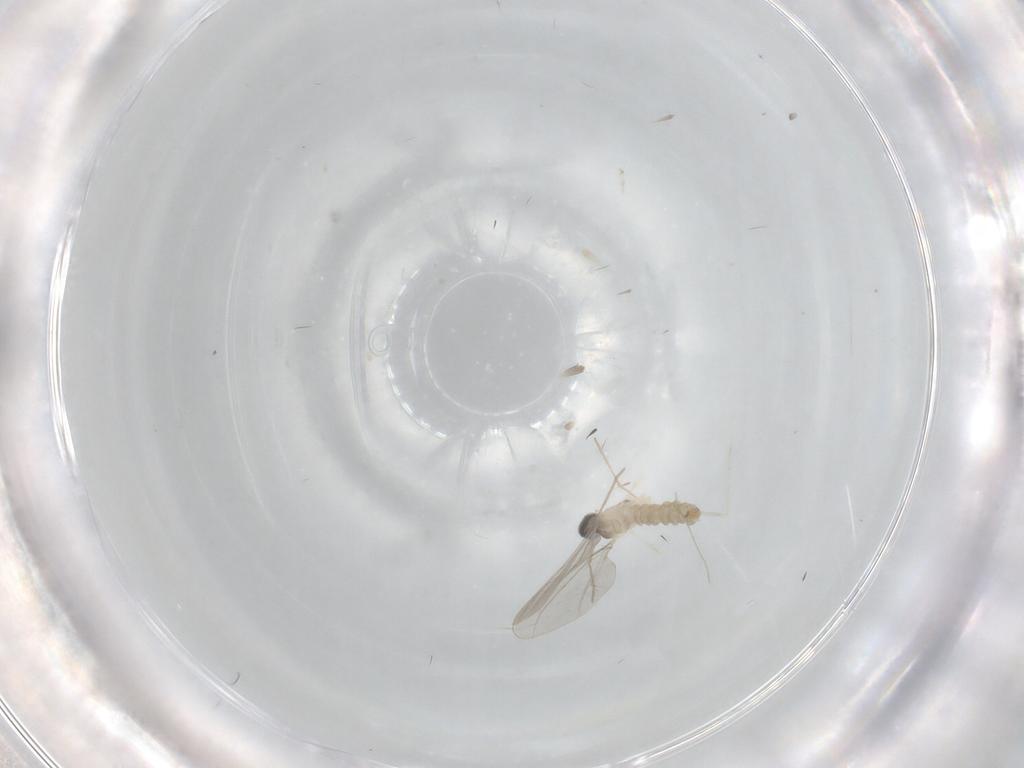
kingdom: Animalia
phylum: Arthropoda
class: Insecta
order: Diptera
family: Cecidomyiidae
